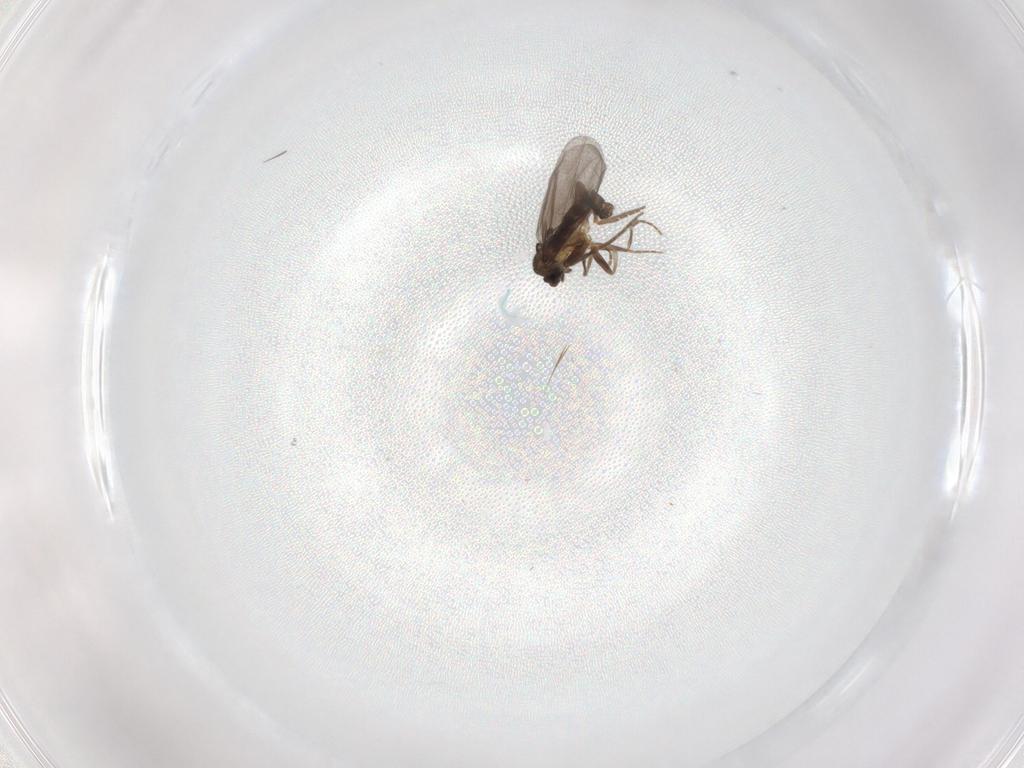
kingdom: Animalia
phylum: Arthropoda
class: Insecta
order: Diptera
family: Phoridae
